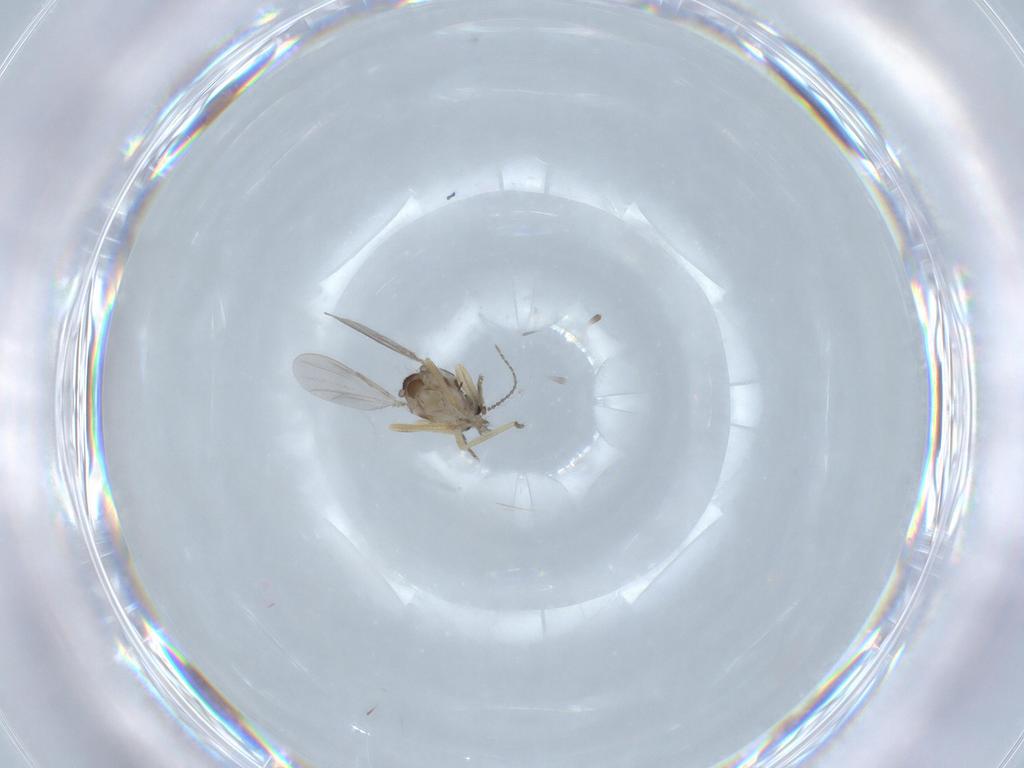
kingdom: Animalia
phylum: Arthropoda
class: Insecta
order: Diptera
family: Ceratopogonidae
